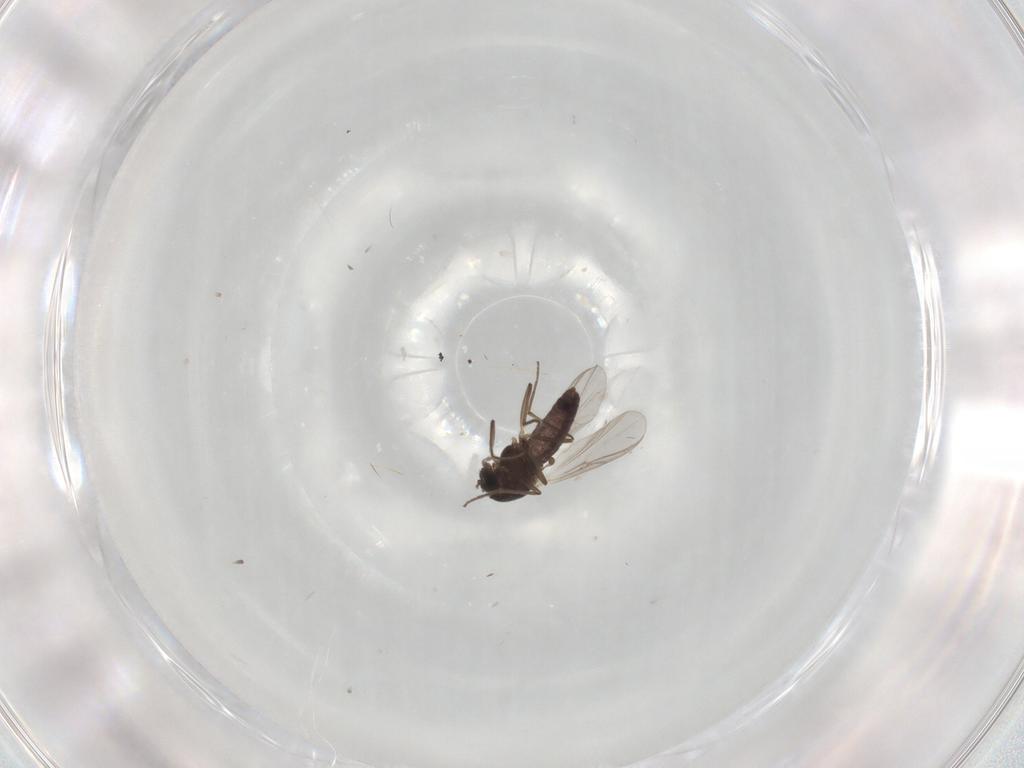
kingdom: Animalia
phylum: Arthropoda
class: Insecta
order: Diptera
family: Chironomidae
